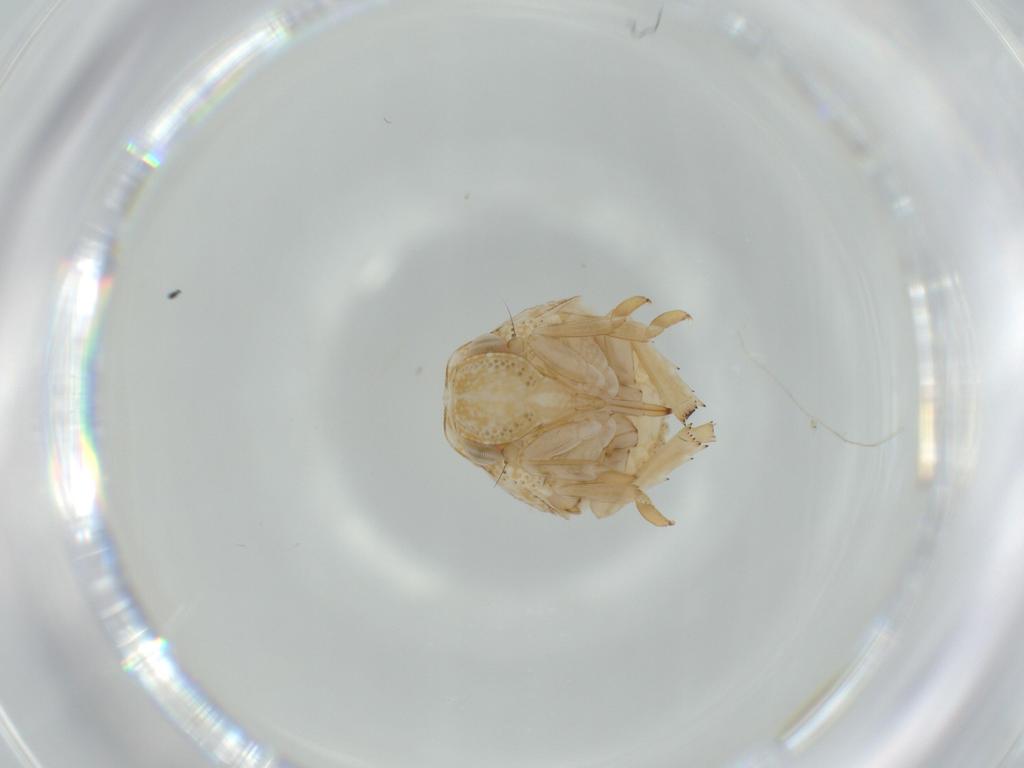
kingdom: Animalia
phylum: Arthropoda
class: Insecta
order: Hemiptera
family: Acanaloniidae
